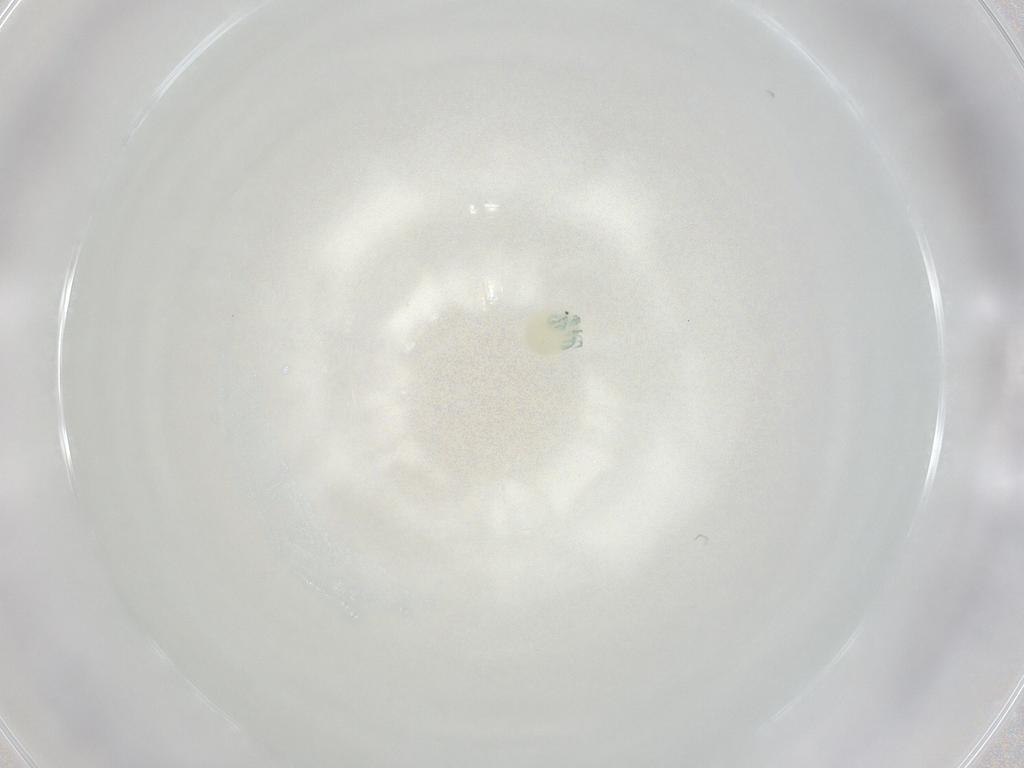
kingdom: Animalia
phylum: Arthropoda
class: Arachnida
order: Trombidiformes
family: Arrenuridae
